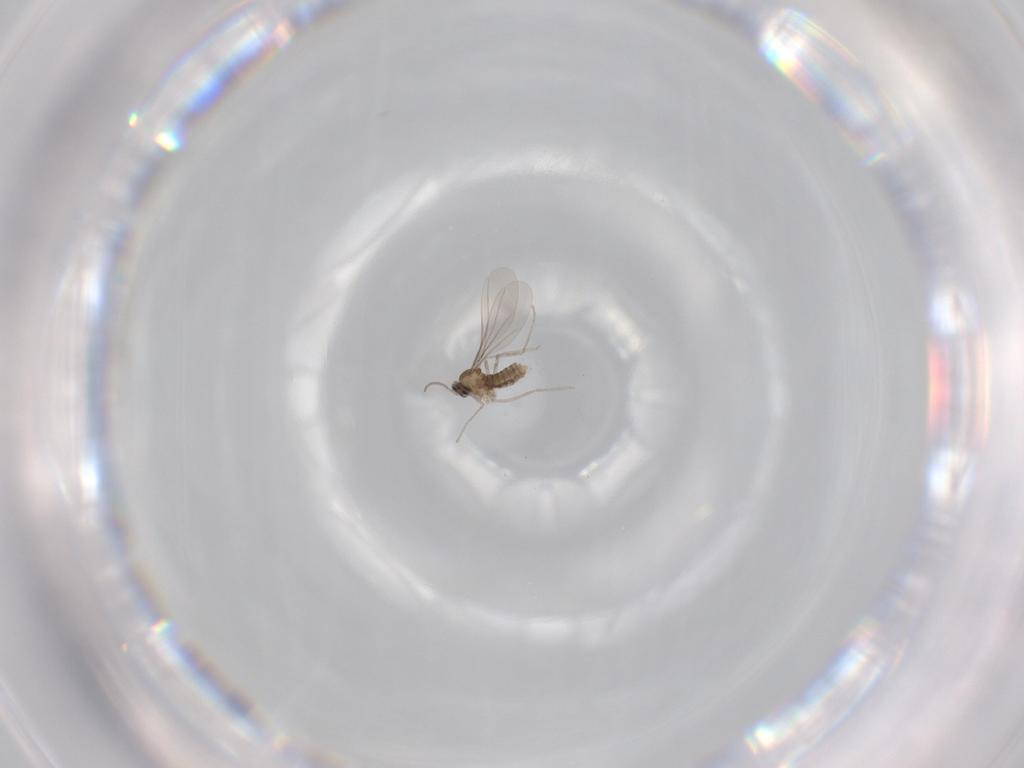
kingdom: Animalia
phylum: Arthropoda
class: Insecta
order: Diptera
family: Cecidomyiidae
